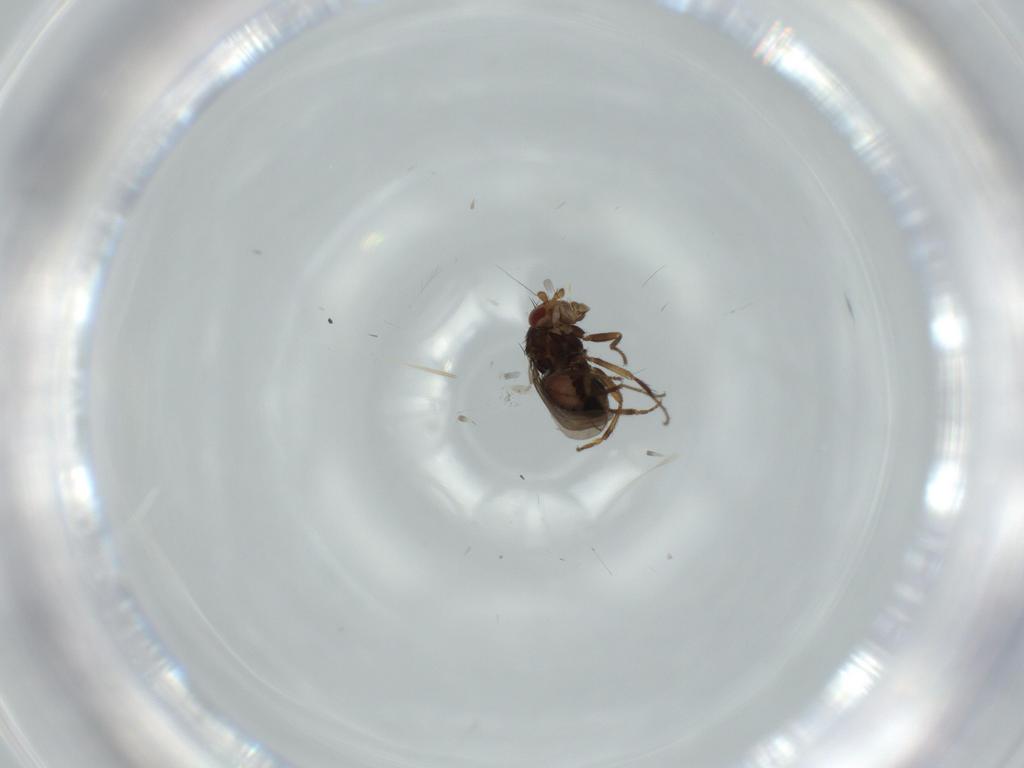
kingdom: Animalia
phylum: Arthropoda
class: Insecta
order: Diptera
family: Sphaeroceridae
